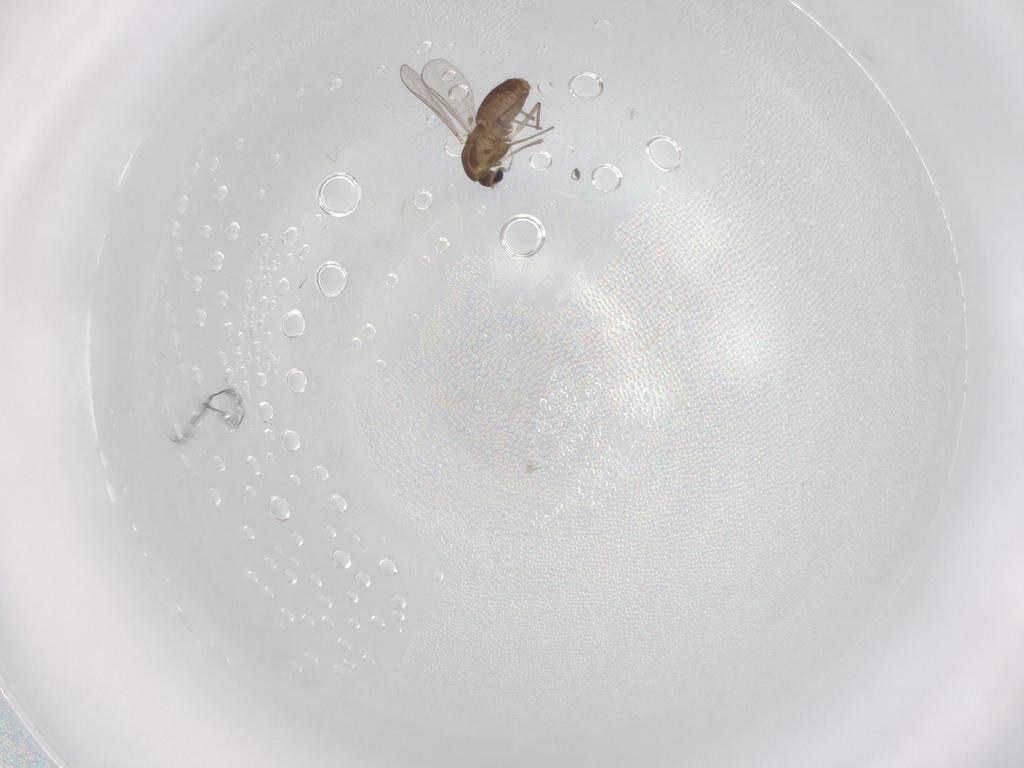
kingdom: Animalia
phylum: Arthropoda
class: Insecta
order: Diptera
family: Chironomidae
